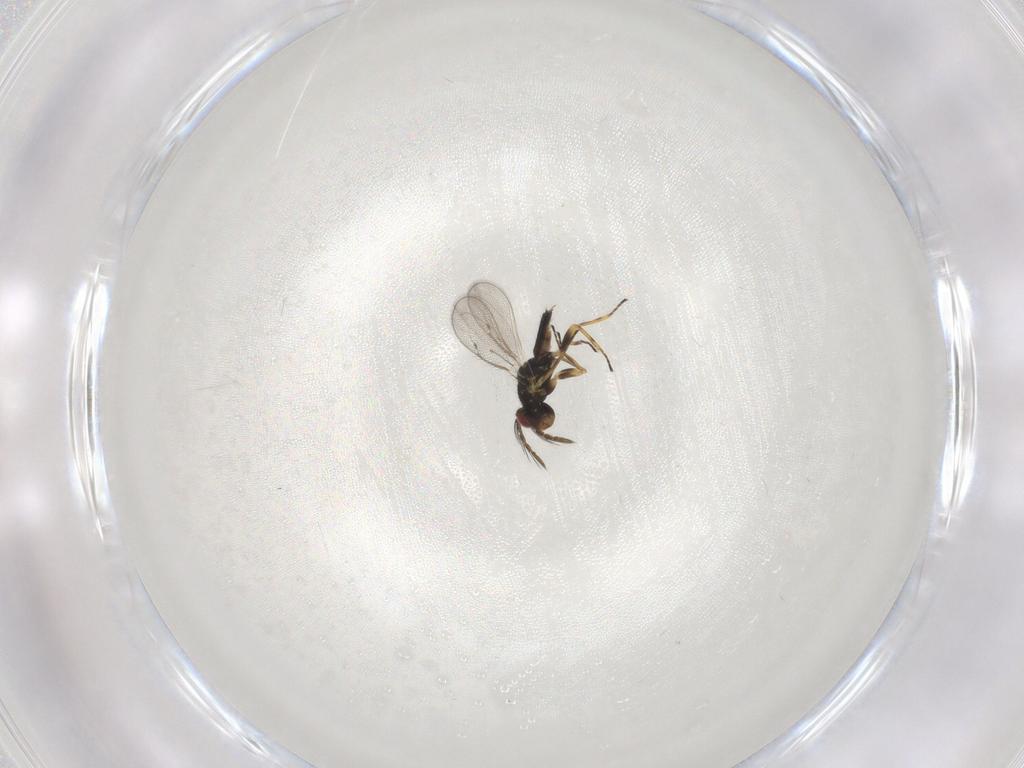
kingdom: Animalia
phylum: Arthropoda
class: Insecta
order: Hymenoptera
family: Eulophidae
